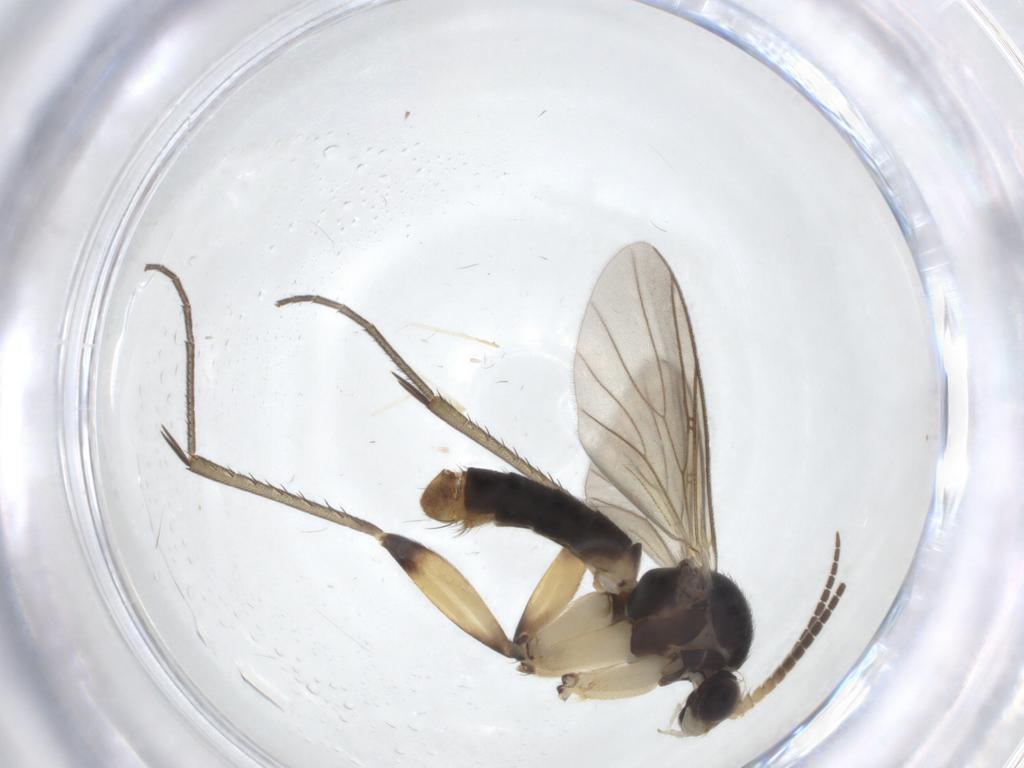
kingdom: Animalia
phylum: Arthropoda
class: Insecta
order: Diptera
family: Mycetophilidae
